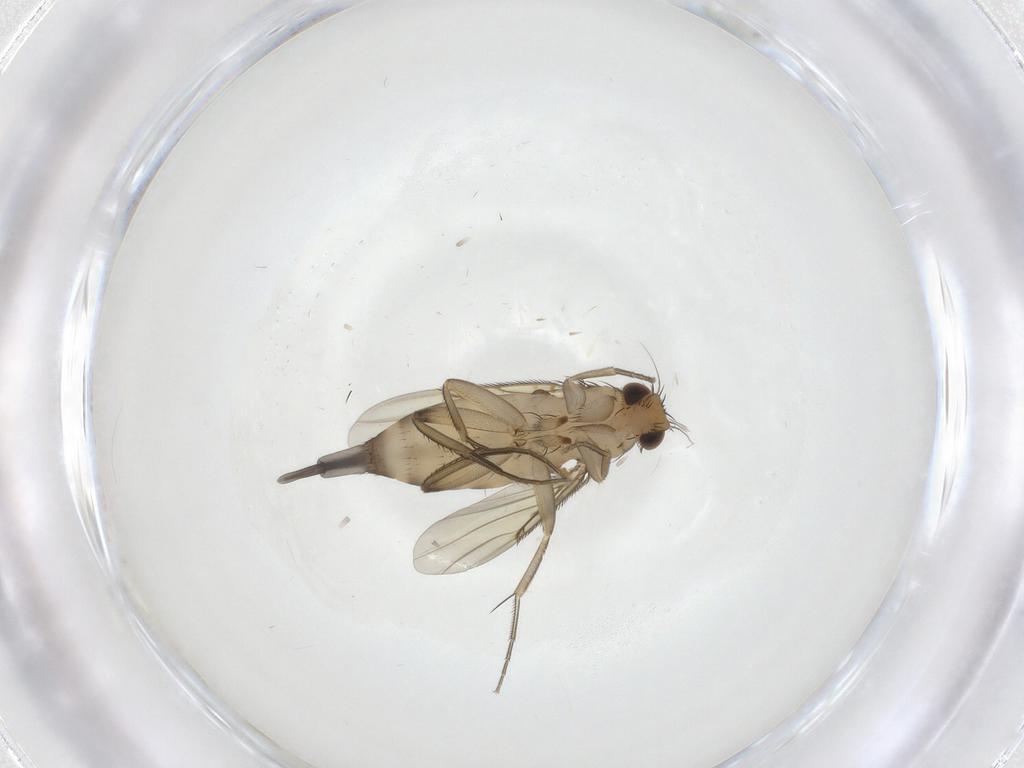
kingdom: Animalia
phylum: Arthropoda
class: Insecta
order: Diptera
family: Phoridae
